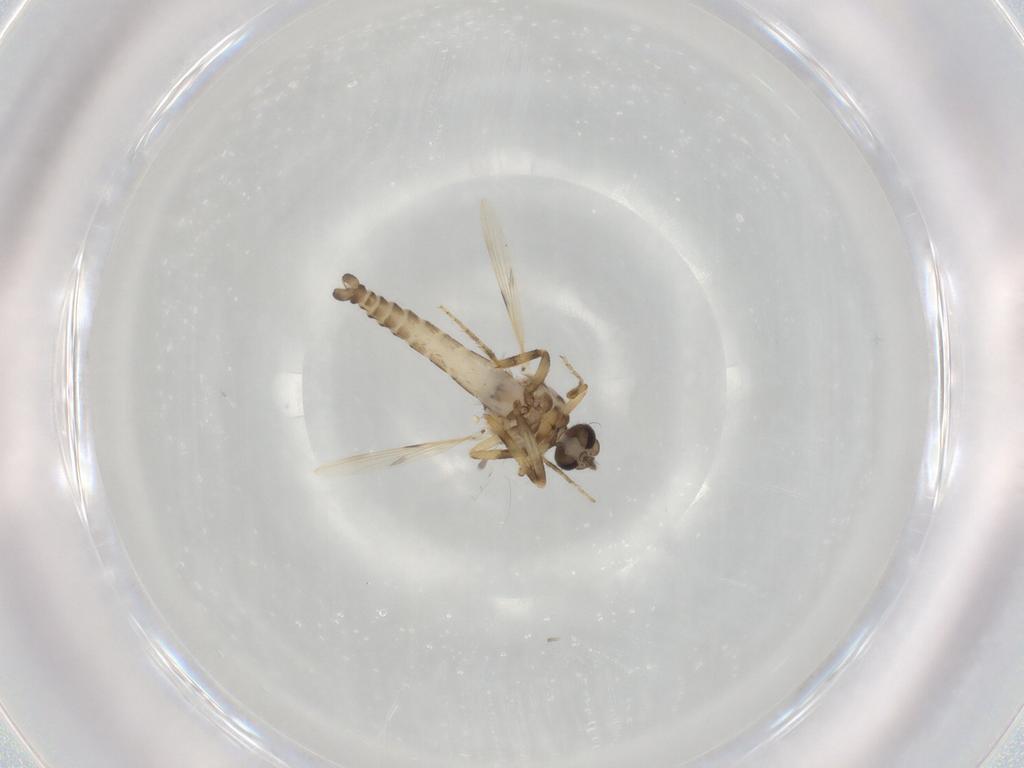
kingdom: Animalia
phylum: Arthropoda
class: Insecta
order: Diptera
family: Ceratopogonidae
